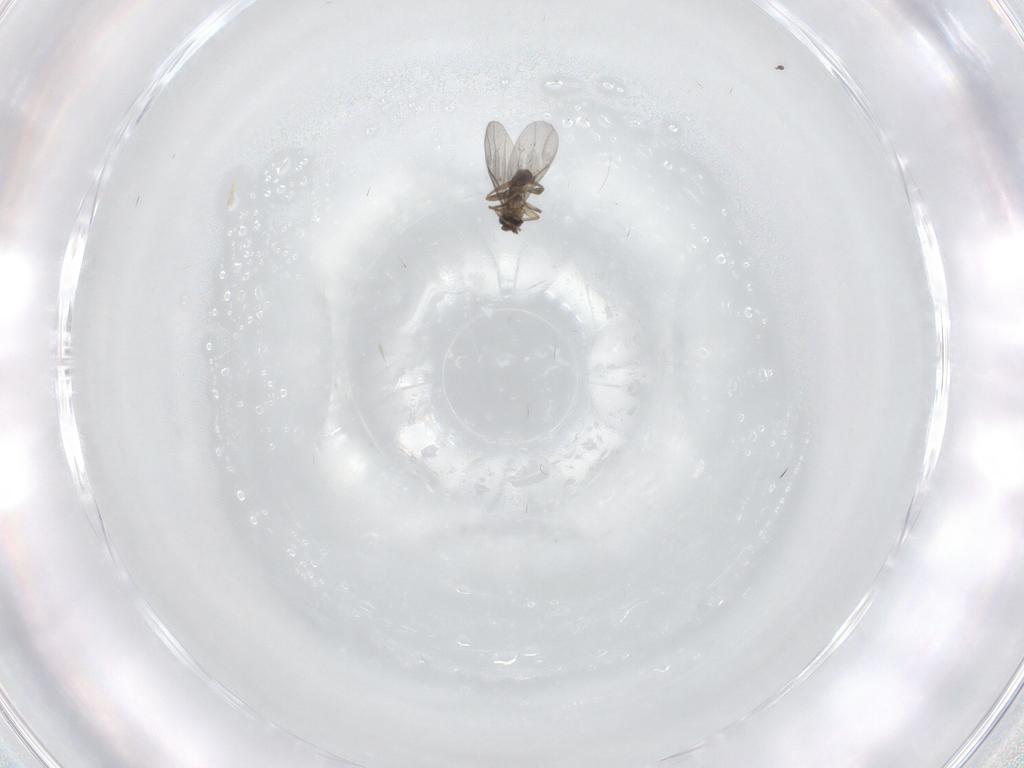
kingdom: Animalia
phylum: Arthropoda
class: Insecta
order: Diptera
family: Phoridae
